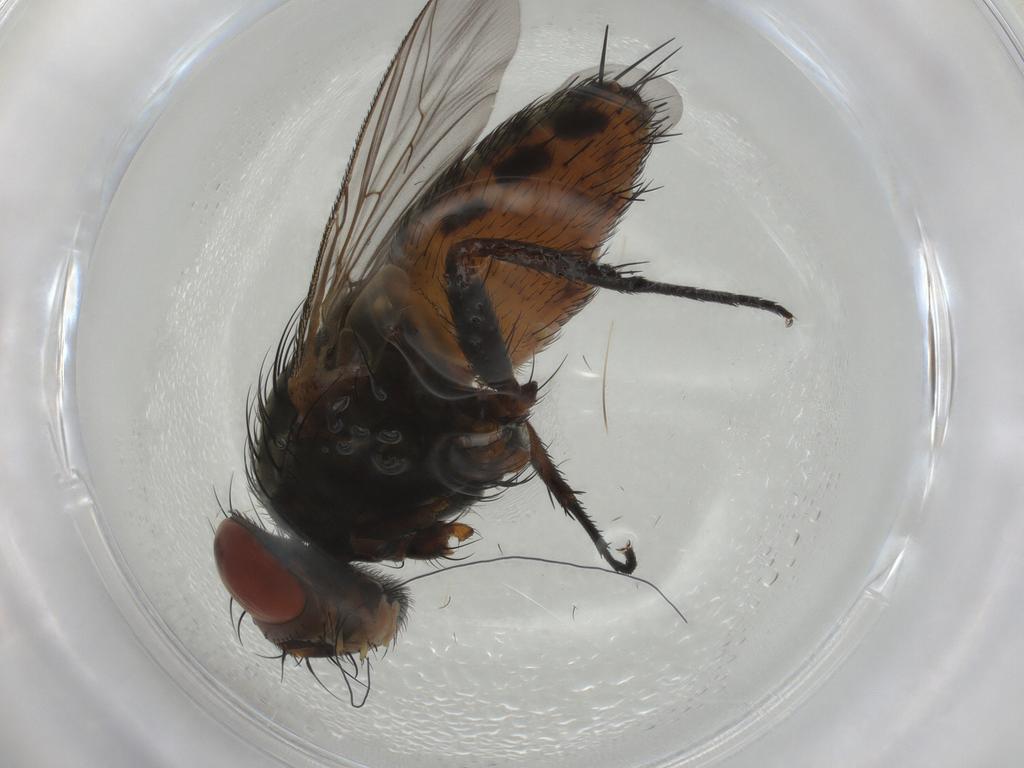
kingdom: Animalia
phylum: Arthropoda
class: Insecta
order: Diptera
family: Sarcophagidae
